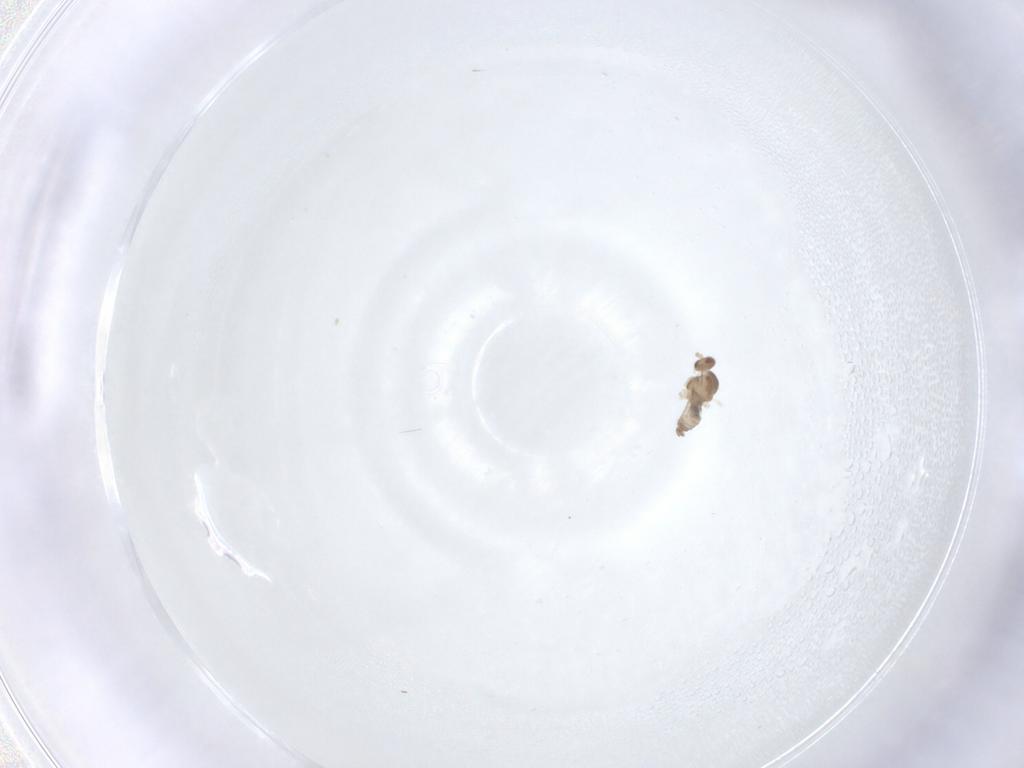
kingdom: Animalia
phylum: Arthropoda
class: Insecta
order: Diptera
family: Cecidomyiidae
